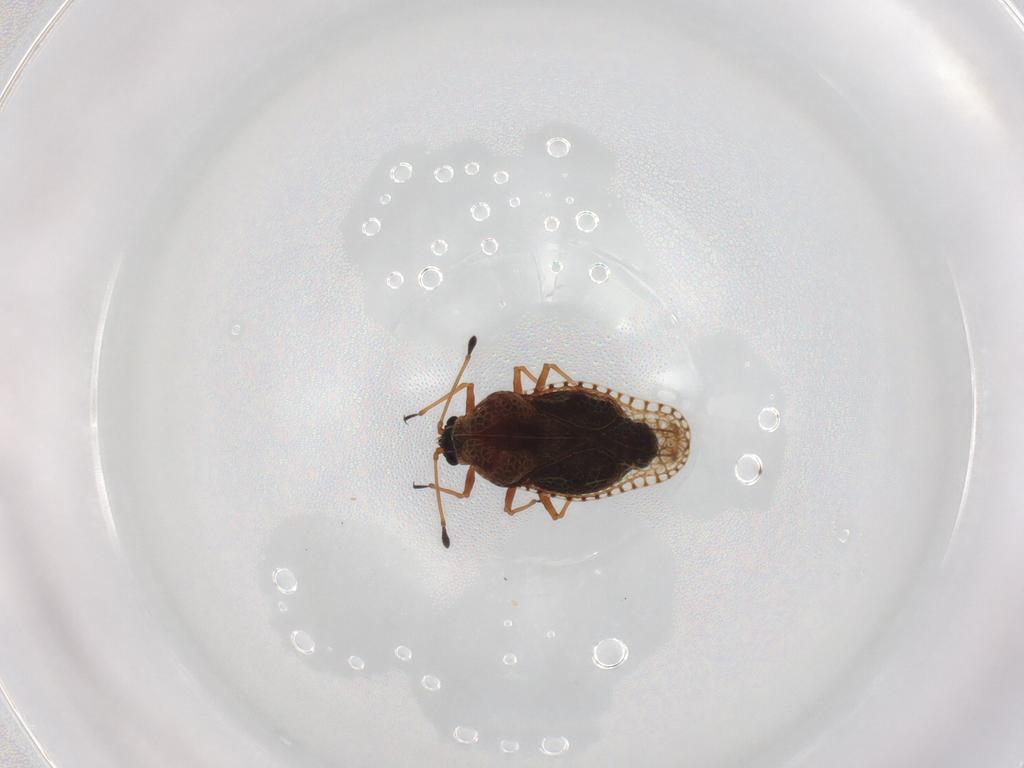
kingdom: Animalia
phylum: Arthropoda
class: Insecta
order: Hemiptera
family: Tingidae
